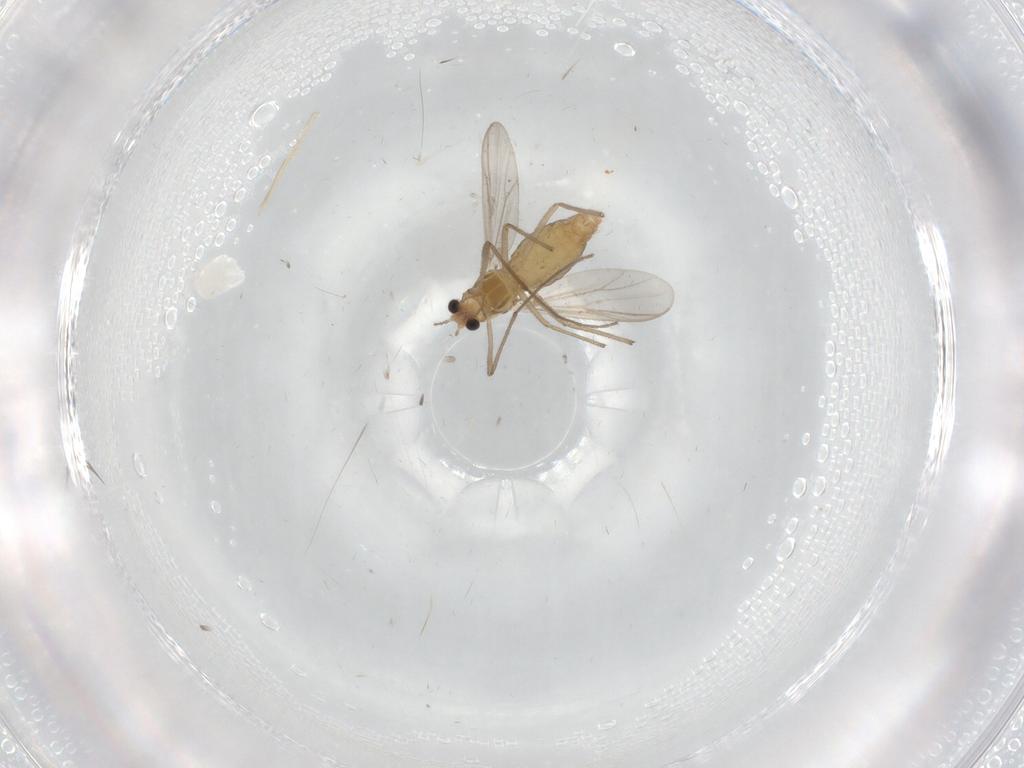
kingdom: Animalia
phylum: Arthropoda
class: Insecta
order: Diptera
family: Chironomidae
